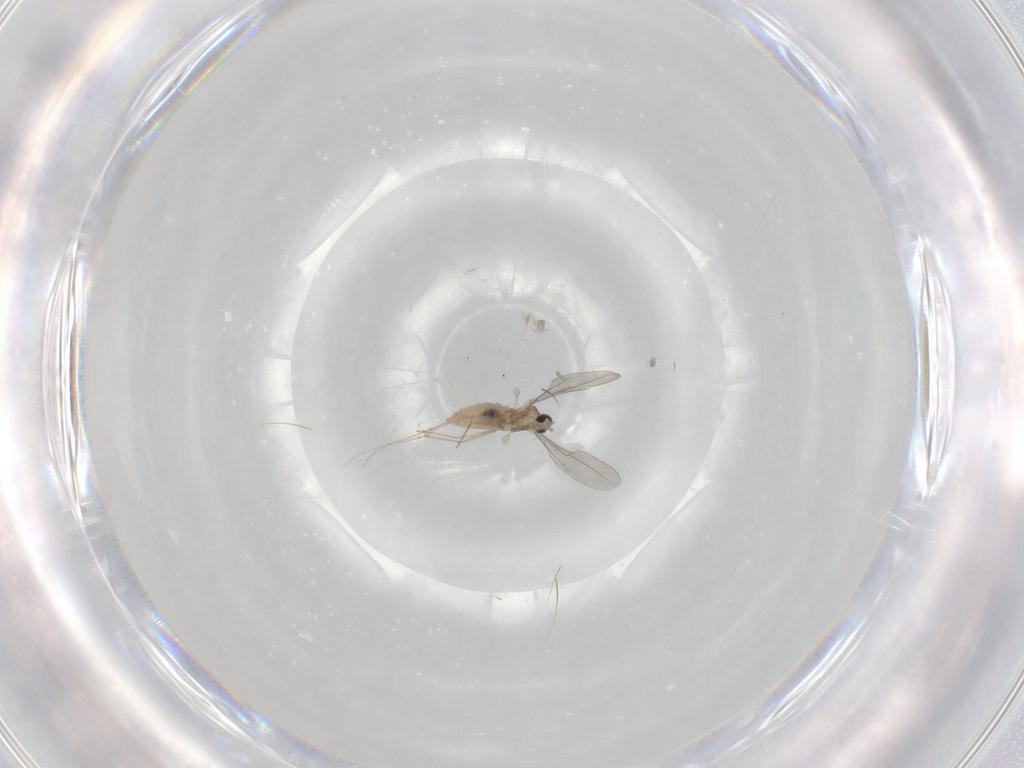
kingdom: Animalia
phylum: Arthropoda
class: Insecta
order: Diptera
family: Cecidomyiidae
